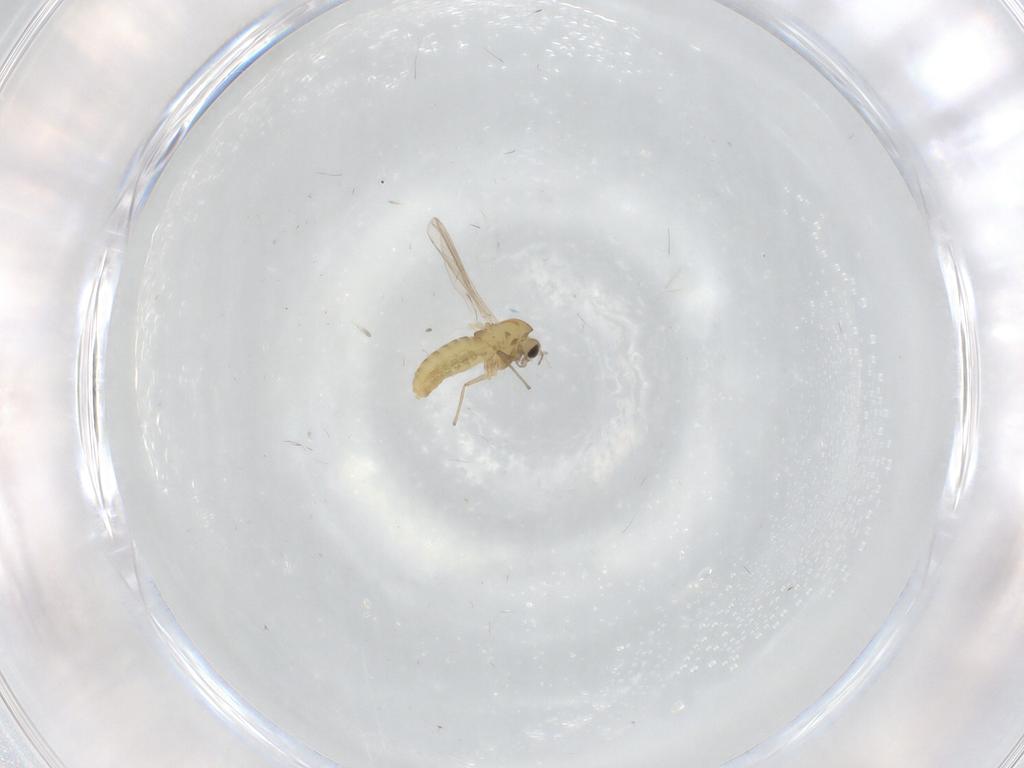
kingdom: Animalia
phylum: Arthropoda
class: Insecta
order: Diptera
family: Chironomidae
